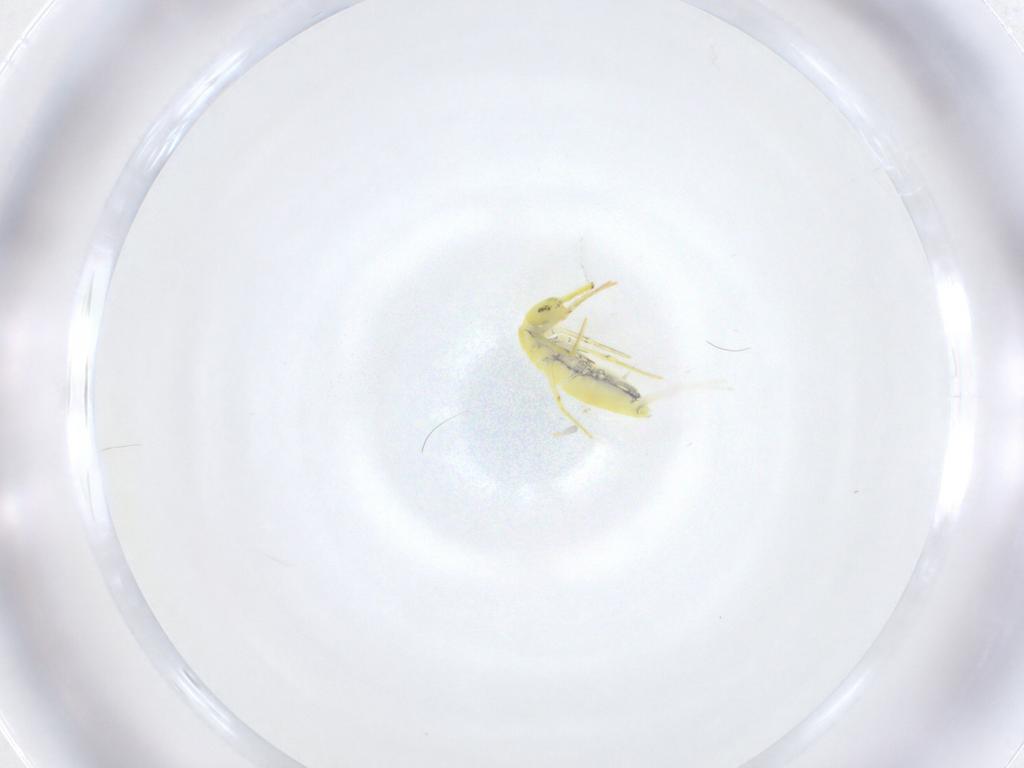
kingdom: Animalia
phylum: Arthropoda
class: Collembola
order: Entomobryomorpha
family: Entomobryidae
